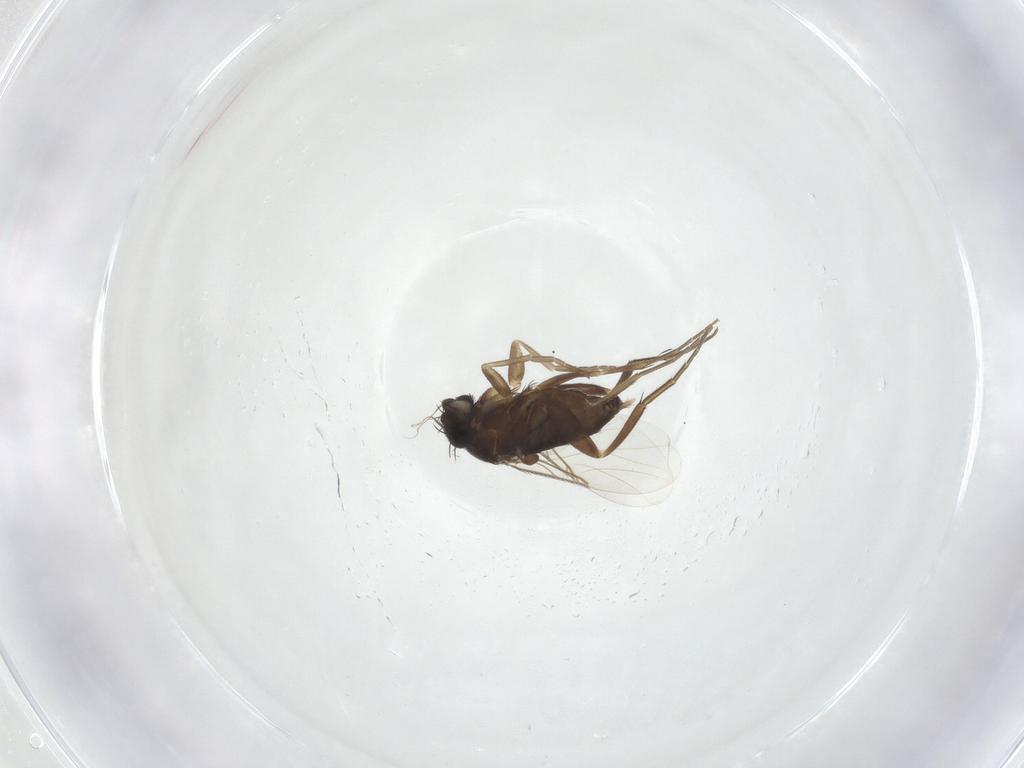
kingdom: Animalia
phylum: Arthropoda
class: Insecta
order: Diptera
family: Phoridae
